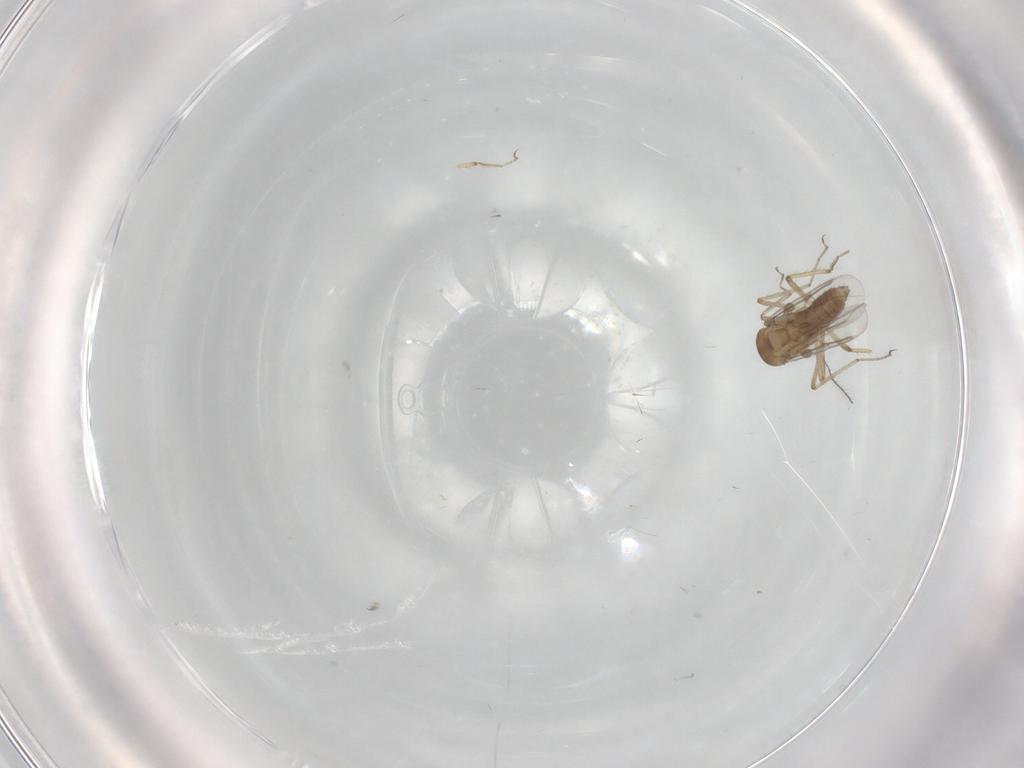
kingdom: Animalia
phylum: Arthropoda
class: Insecta
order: Diptera
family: Ceratopogonidae
